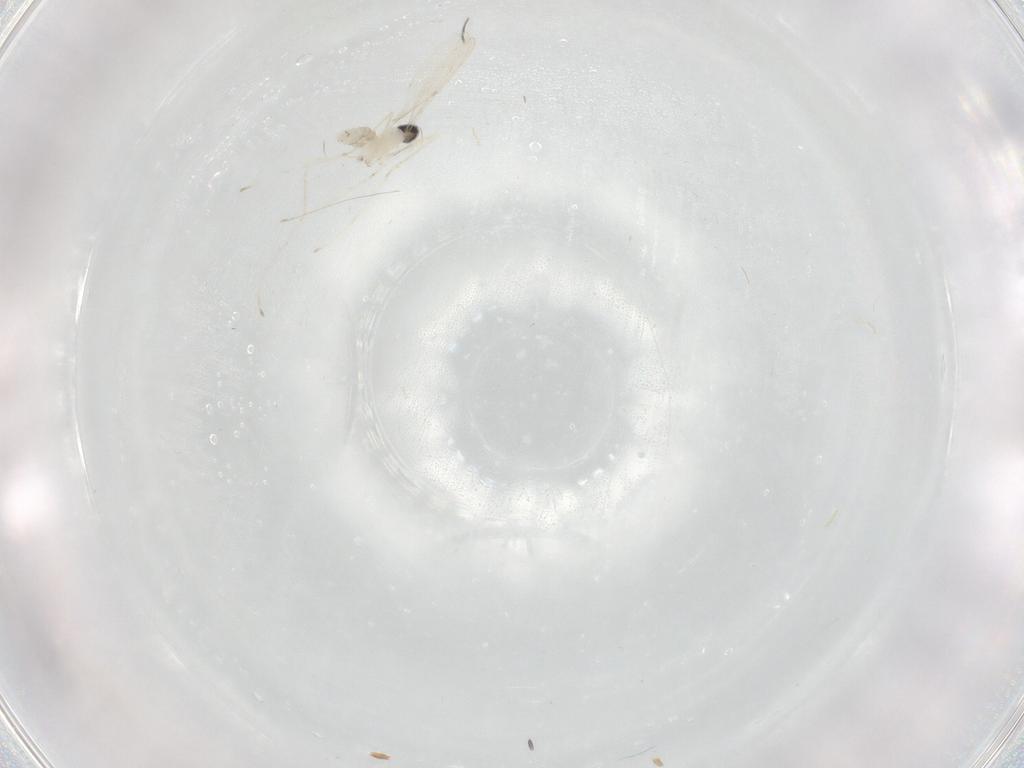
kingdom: Animalia
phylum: Arthropoda
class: Insecta
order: Diptera
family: Cecidomyiidae
